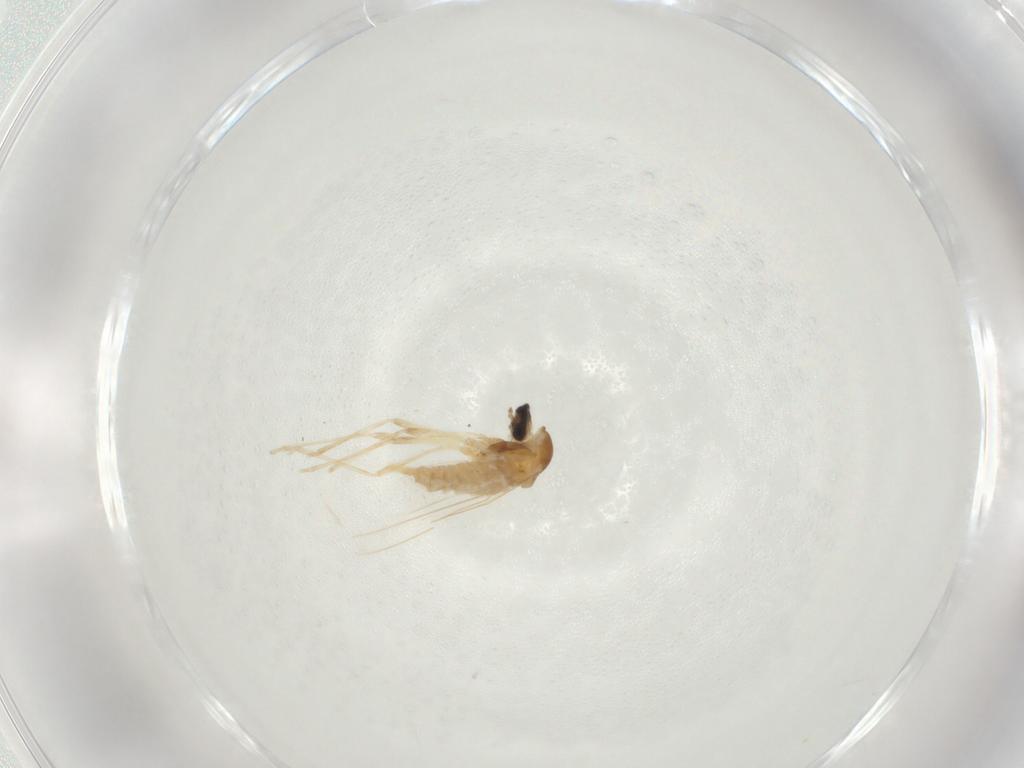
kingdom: Animalia
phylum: Arthropoda
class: Insecta
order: Diptera
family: Cecidomyiidae
